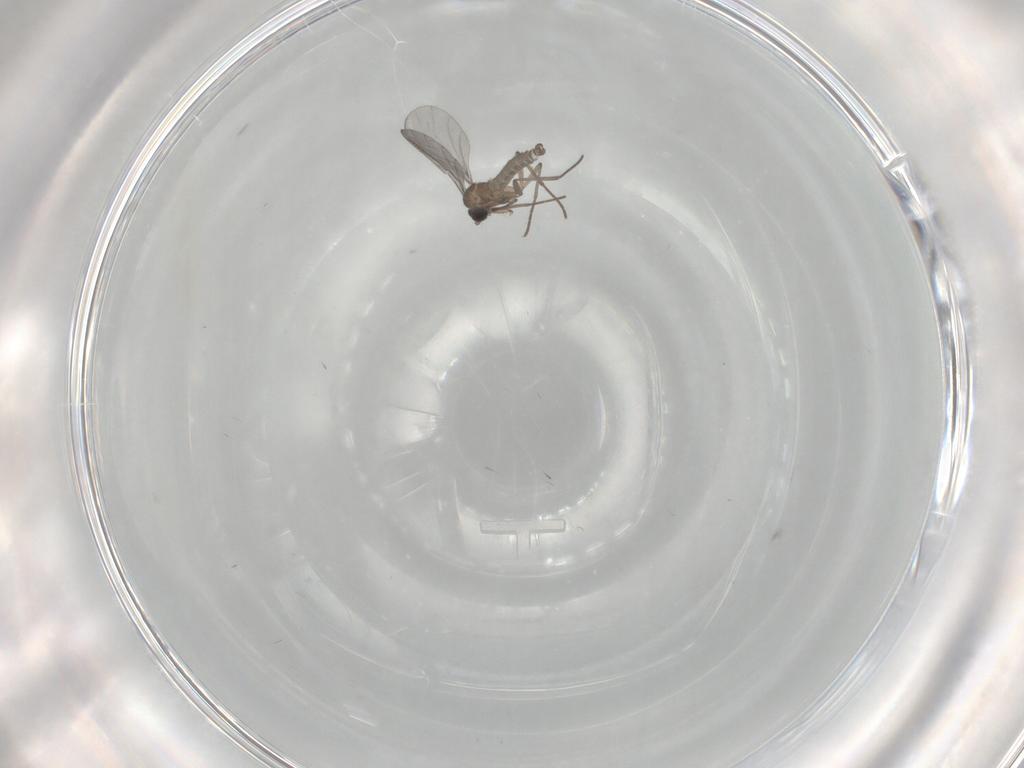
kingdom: Animalia
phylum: Arthropoda
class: Insecta
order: Diptera
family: Sciaridae
